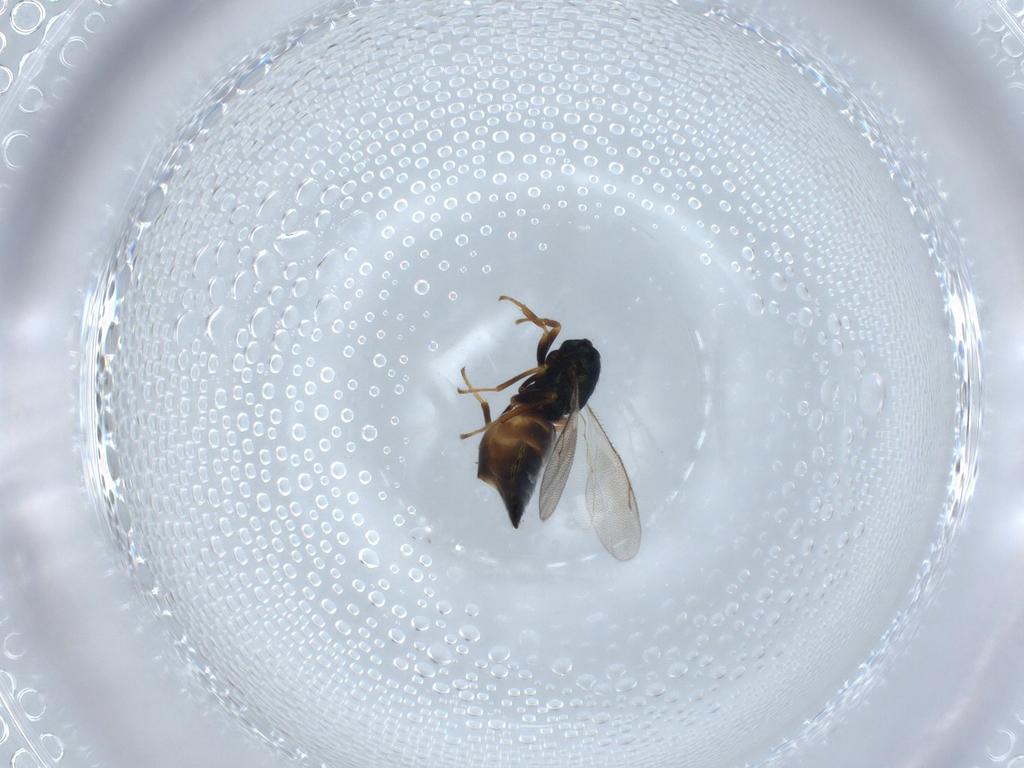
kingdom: Animalia
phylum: Arthropoda
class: Insecta
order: Hymenoptera
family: Pteromalidae
